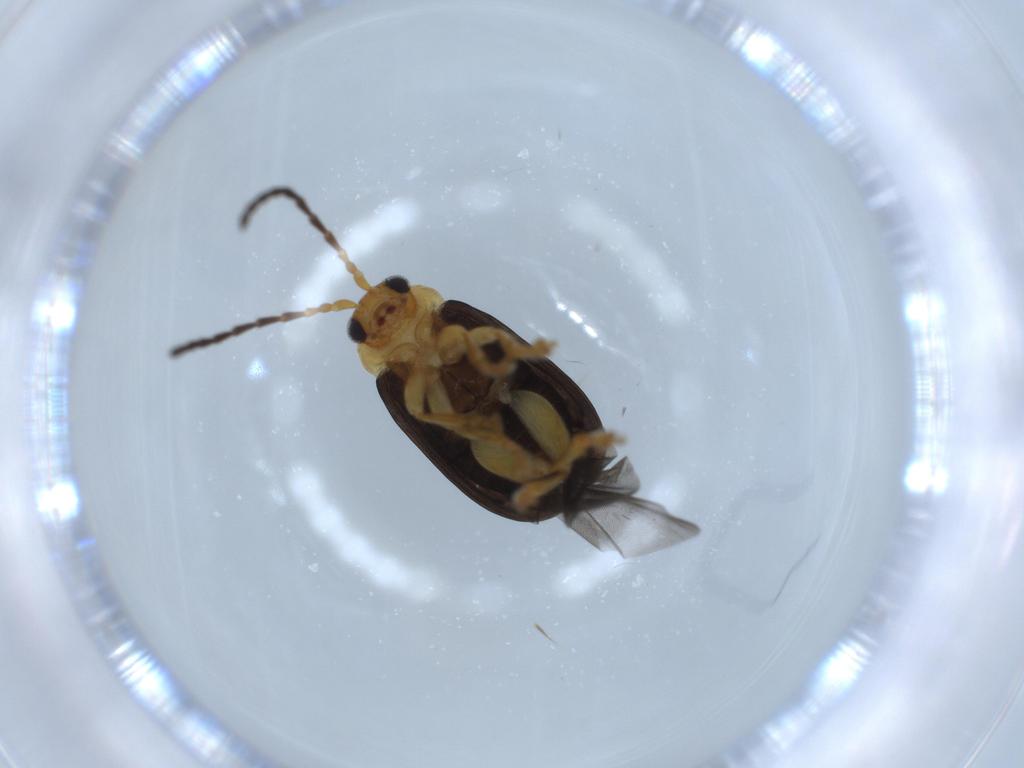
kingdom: Animalia
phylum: Arthropoda
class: Insecta
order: Coleoptera
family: Chrysomelidae
